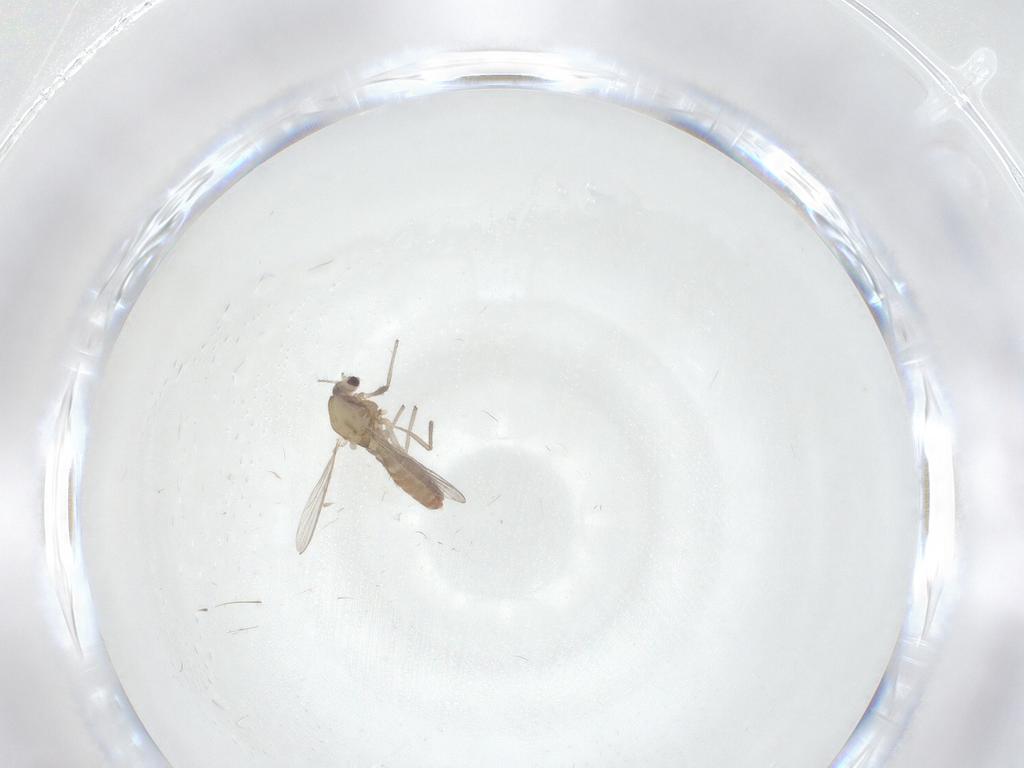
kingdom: Animalia
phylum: Arthropoda
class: Insecta
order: Diptera
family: Chironomidae
